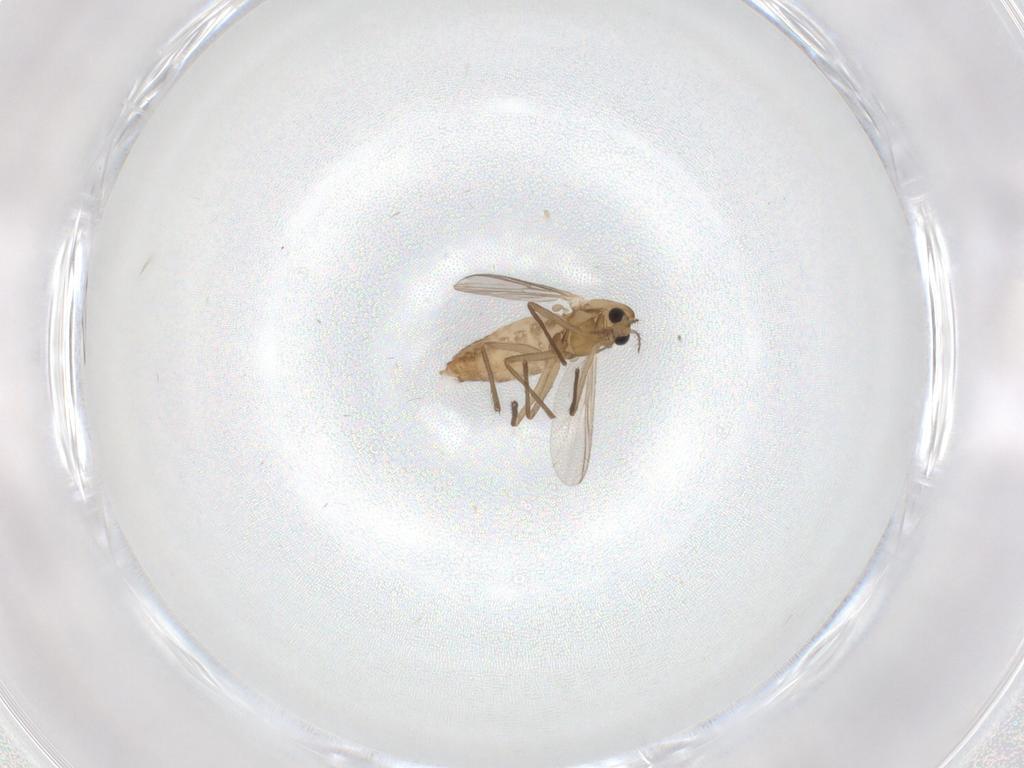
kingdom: Animalia
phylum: Arthropoda
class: Insecta
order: Diptera
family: Chironomidae
